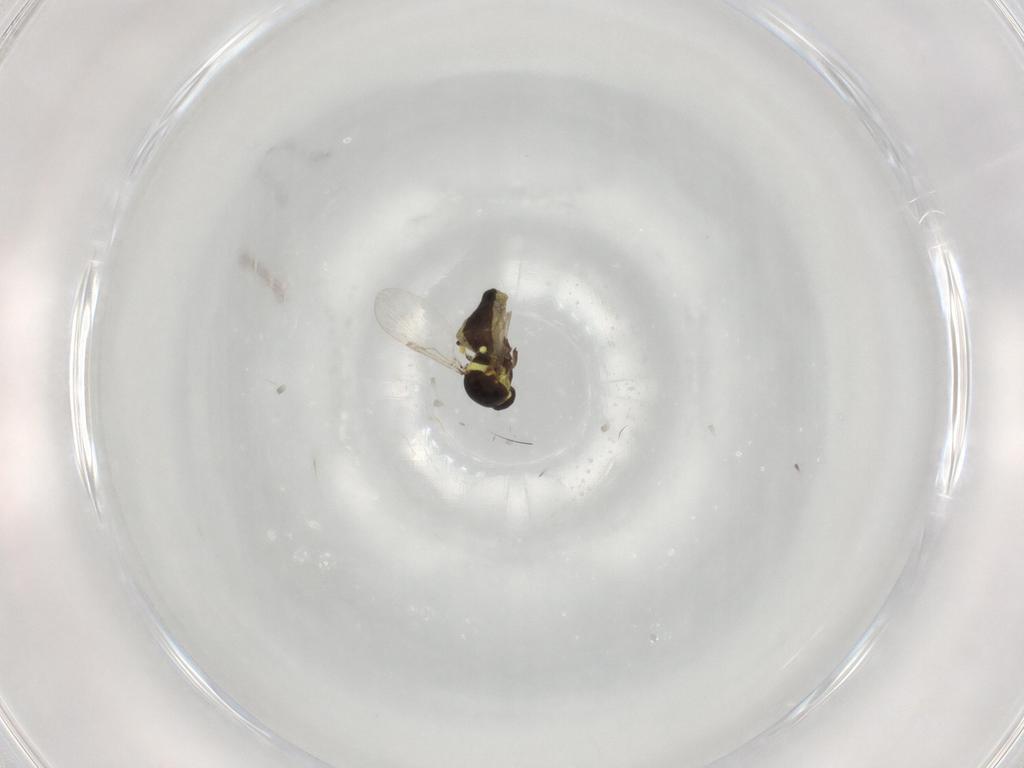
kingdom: Animalia
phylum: Arthropoda
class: Insecta
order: Diptera
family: Ceratopogonidae
